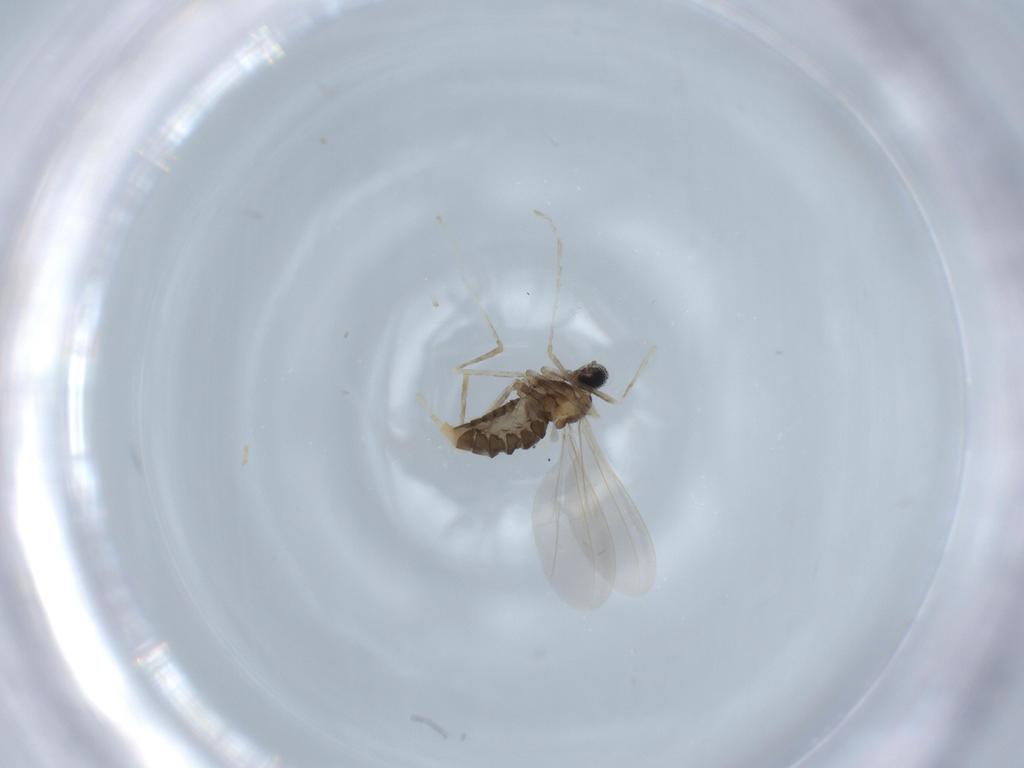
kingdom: Animalia
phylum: Arthropoda
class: Insecta
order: Diptera
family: Cecidomyiidae
